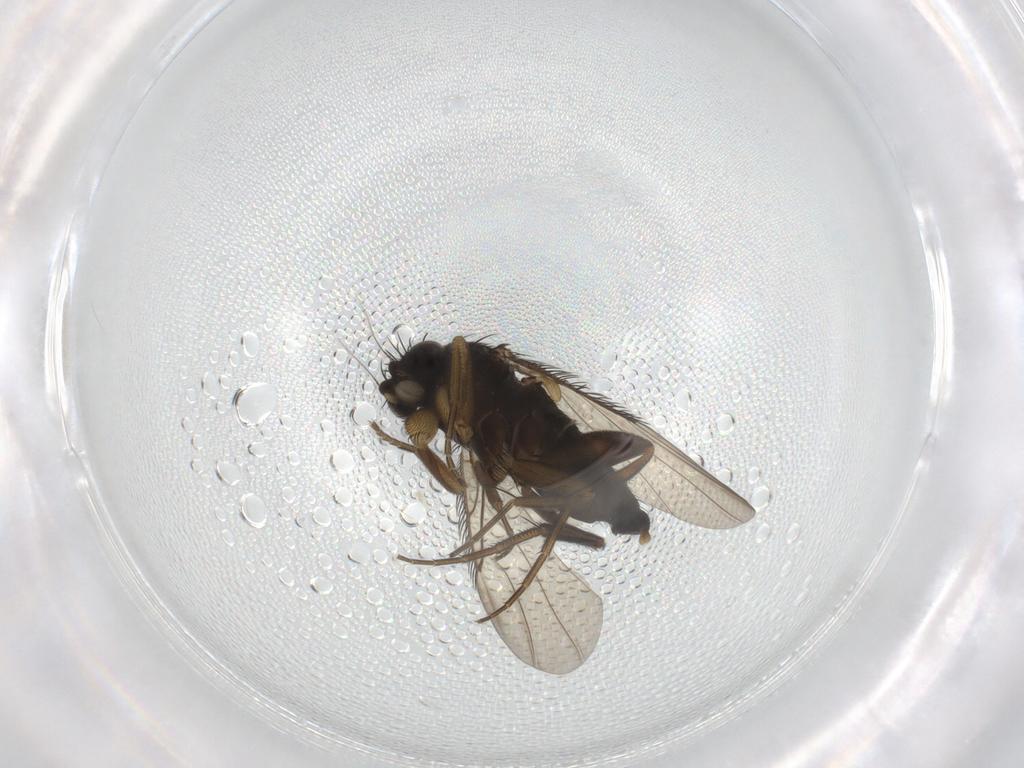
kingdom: Animalia
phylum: Arthropoda
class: Insecta
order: Diptera
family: Phoridae
